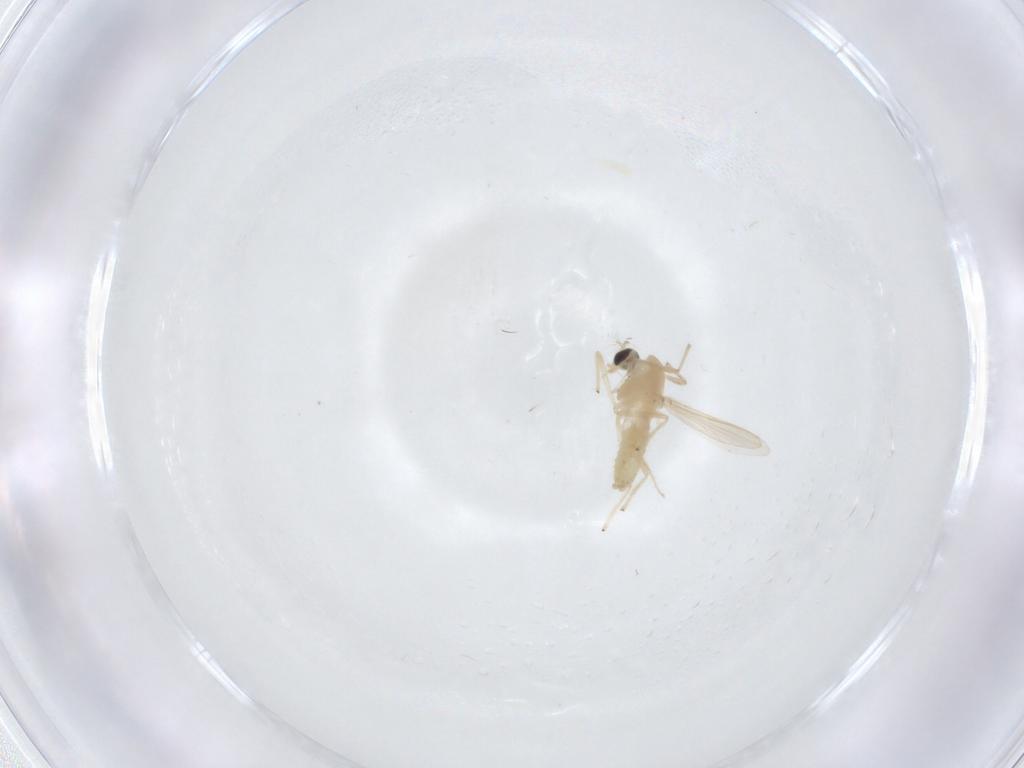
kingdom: Animalia
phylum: Arthropoda
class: Insecta
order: Diptera
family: Chironomidae
